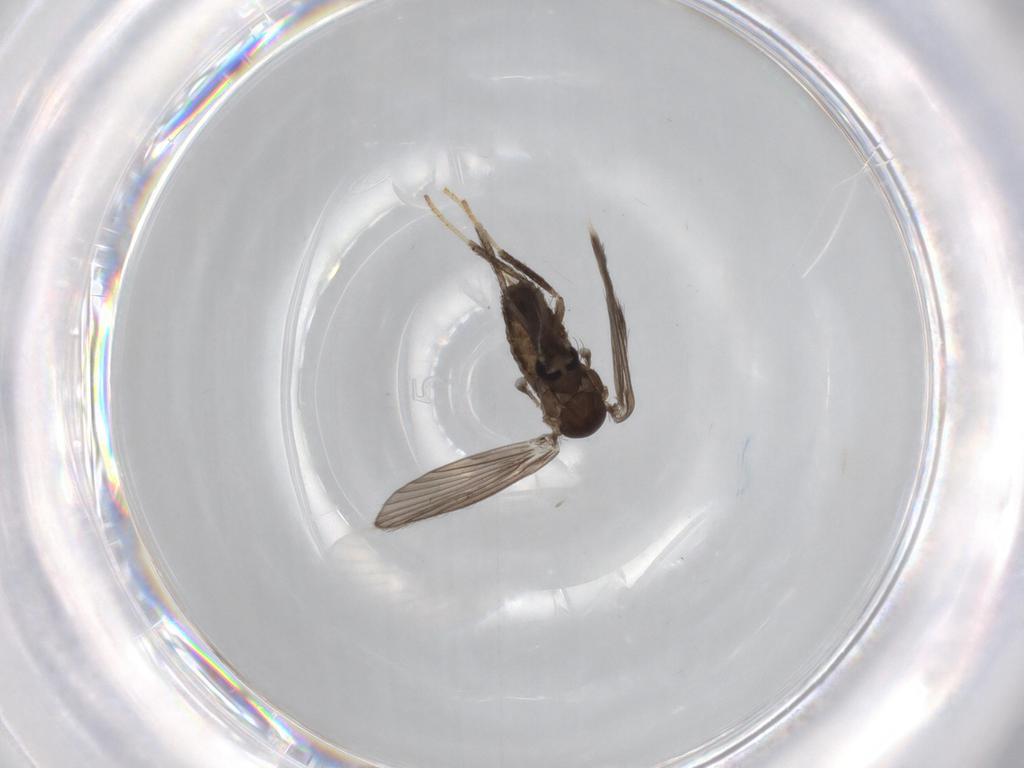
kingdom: Animalia
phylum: Arthropoda
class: Insecta
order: Diptera
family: Psychodidae
